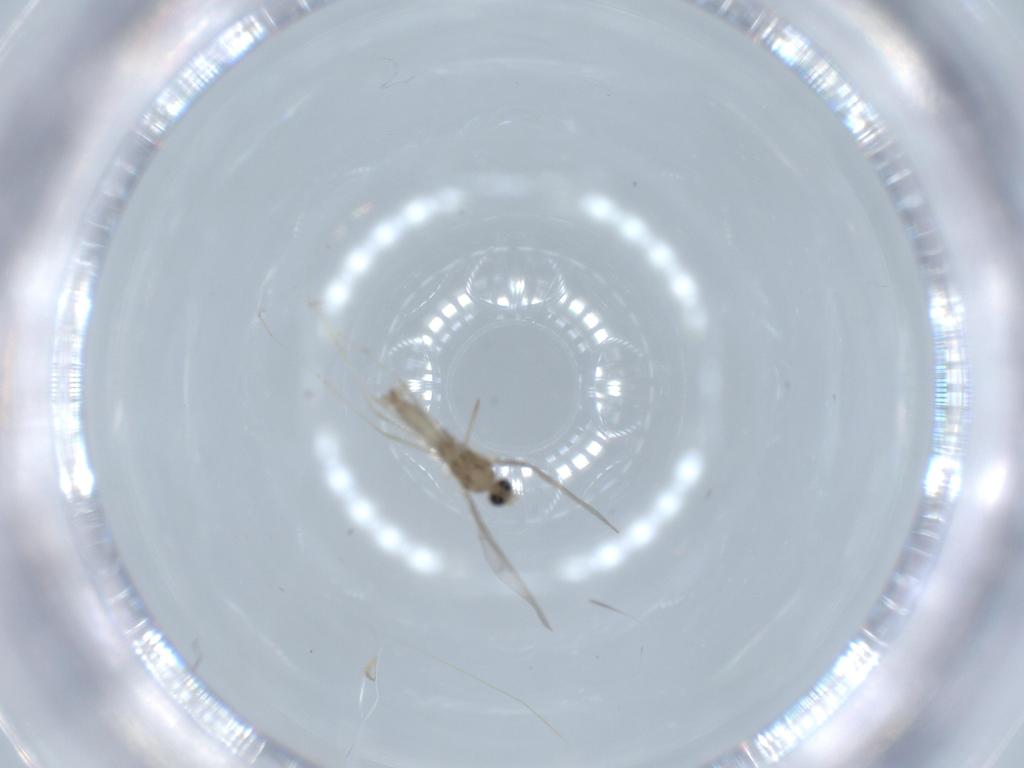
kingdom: Animalia
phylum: Arthropoda
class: Insecta
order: Diptera
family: Cecidomyiidae
